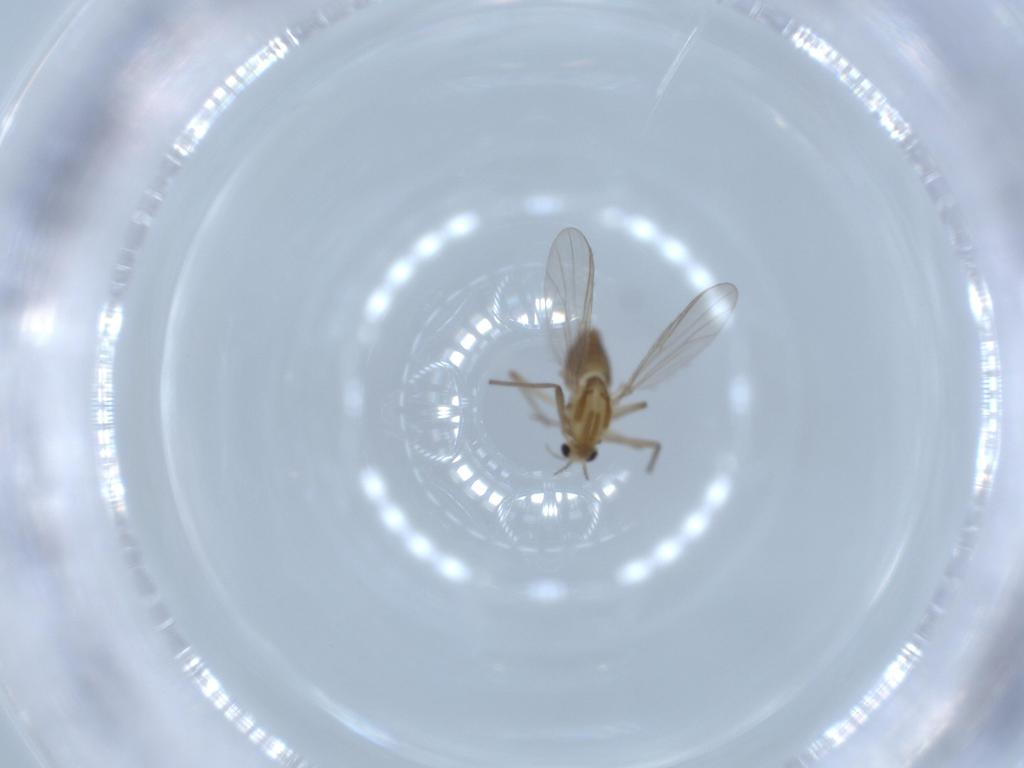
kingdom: Animalia
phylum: Arthropoda
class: Insecta
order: Diptera
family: Chironomidae
